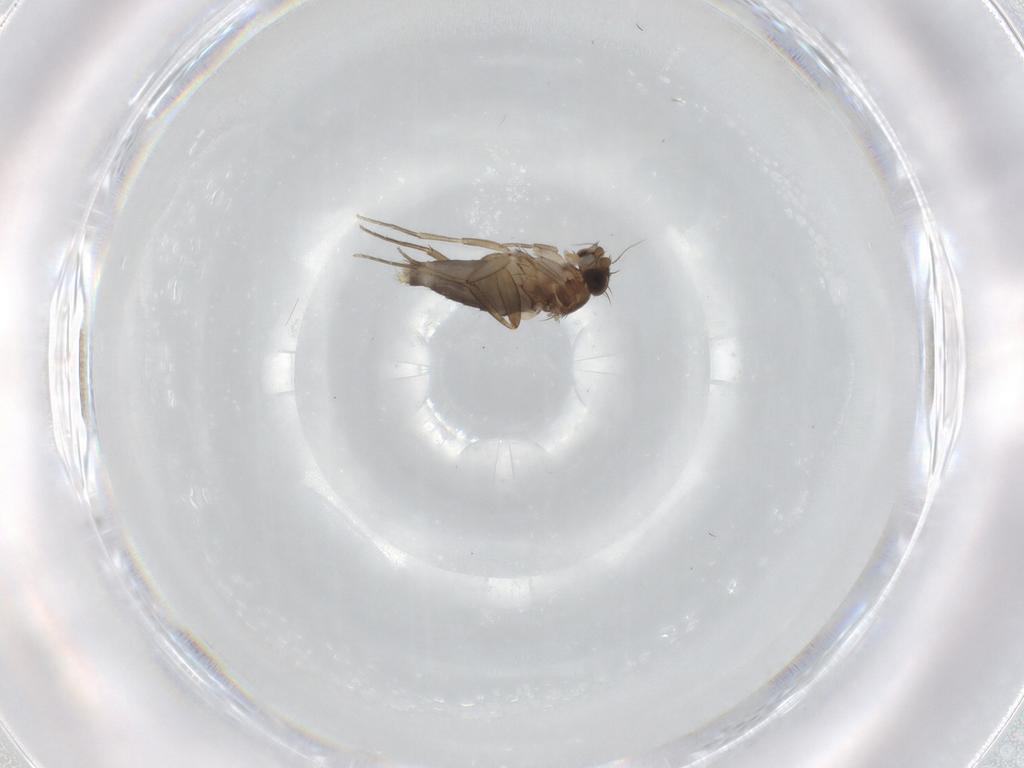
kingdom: Animalia
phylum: Arthropoda
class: Insecta
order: Diptera
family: Phoridae
